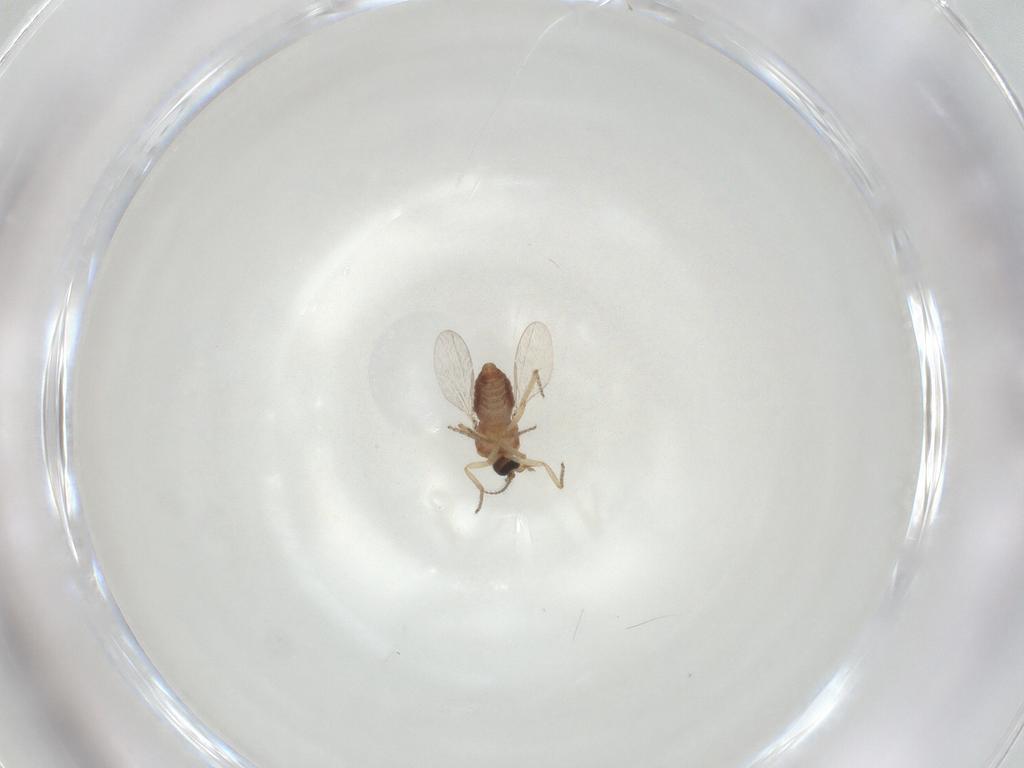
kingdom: Animalia
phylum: Arthropoda
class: Insecta
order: Diptera
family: Ceratopogonidae
